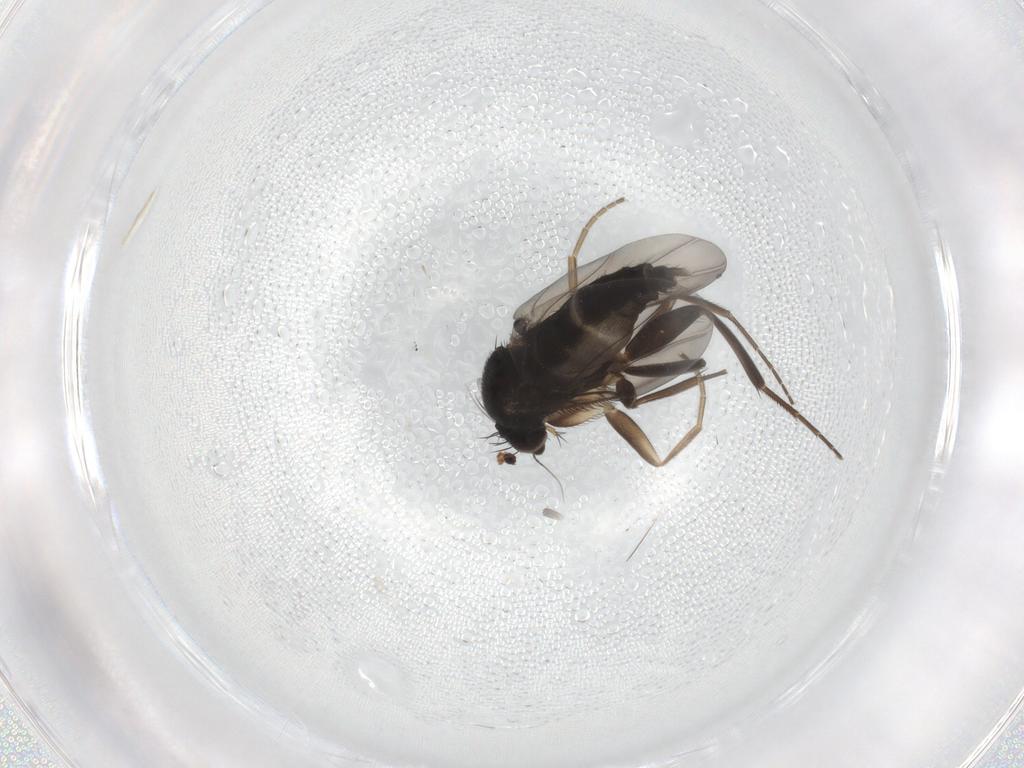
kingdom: Animalia
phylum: Arthropoda
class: Insecta
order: Diptera
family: Phoridae
